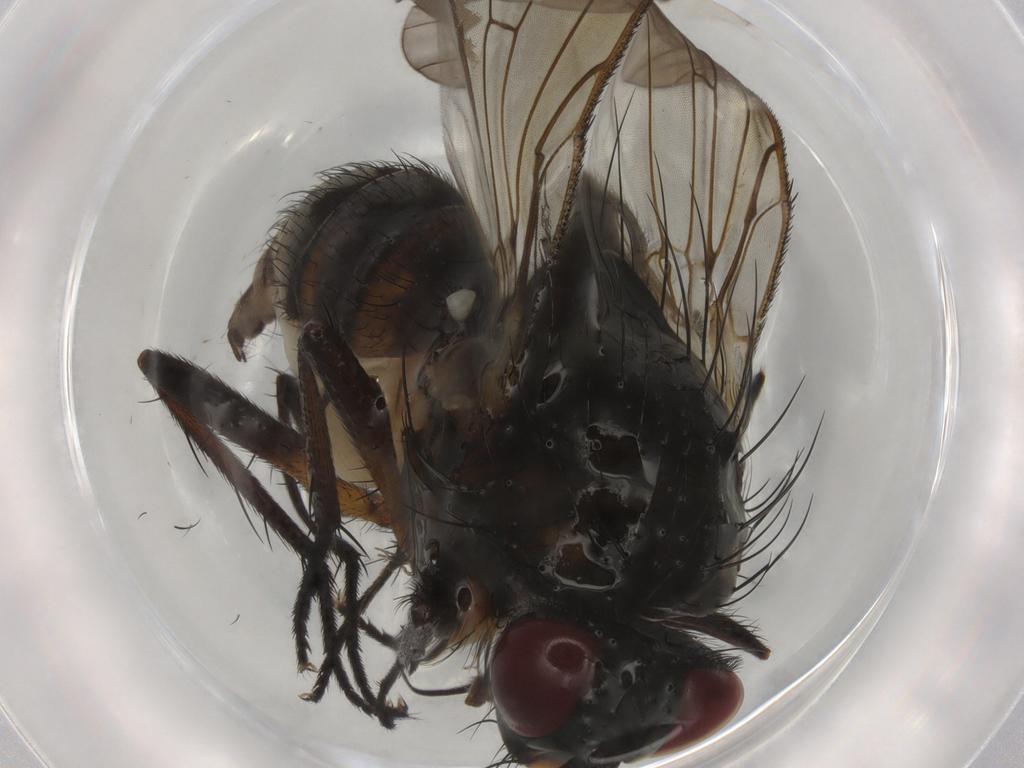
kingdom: Animalia
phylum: Arthropoda
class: Insecta
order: Diptera
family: Anthomyiidae
